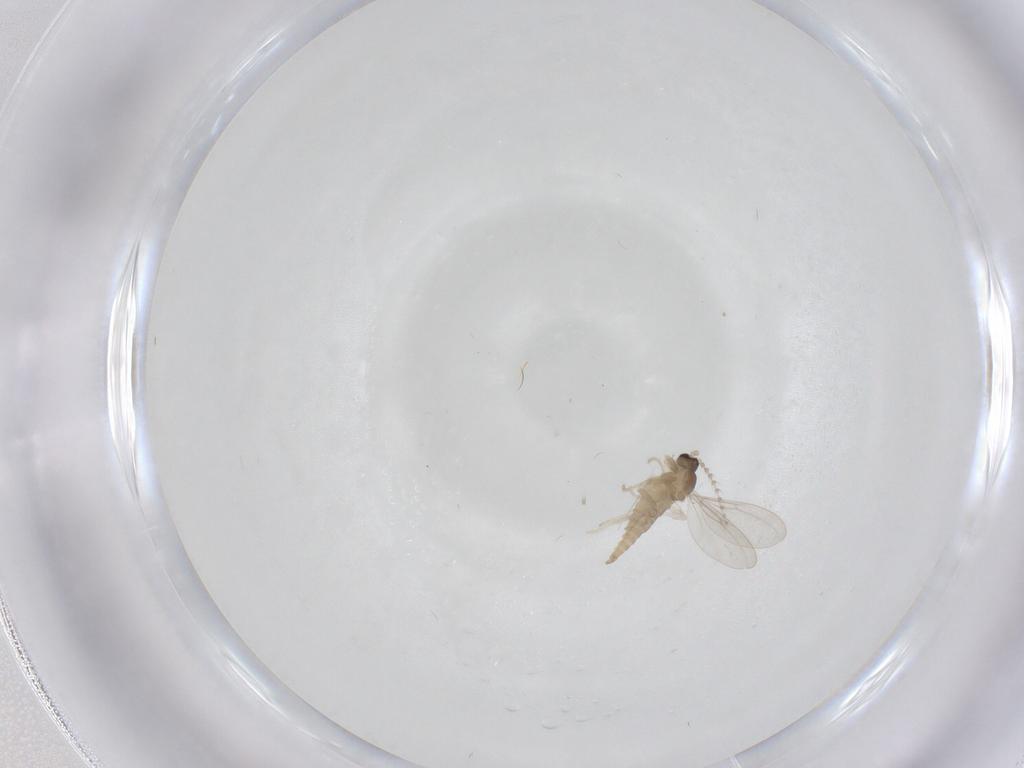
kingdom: Animalia
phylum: Arthropoda
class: Insecta
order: Diptera
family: Cecidomyiidae
